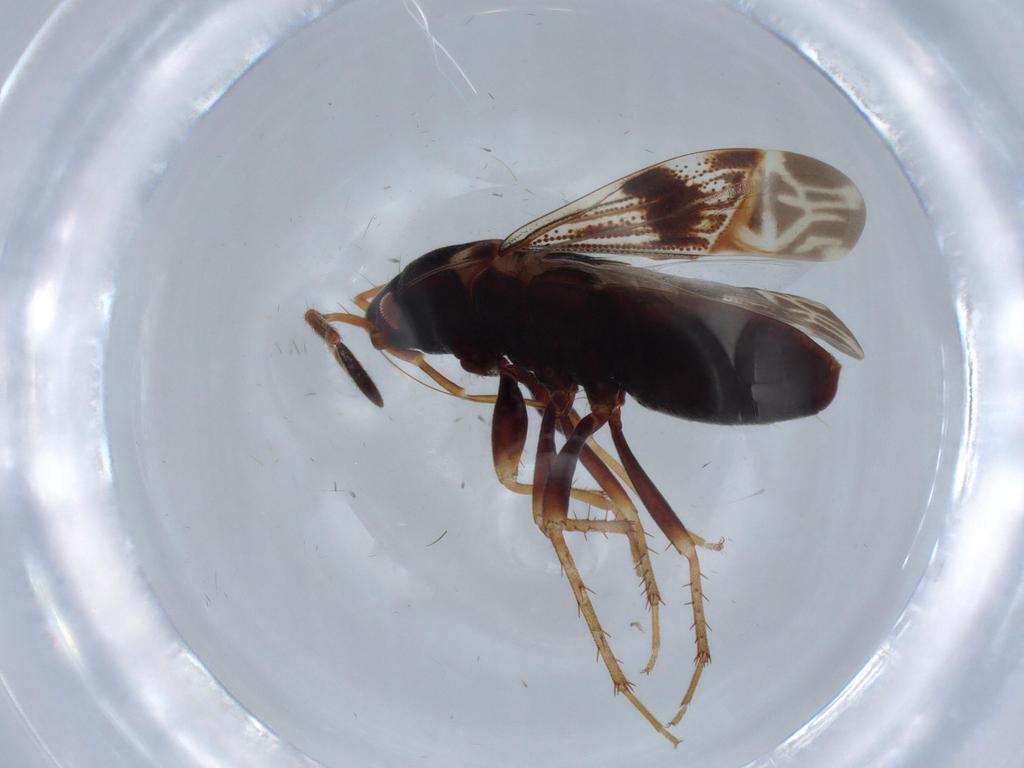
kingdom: Animalia
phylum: Arthropoda
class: Insecta
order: Hemiptera
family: Rhyparochromidae
